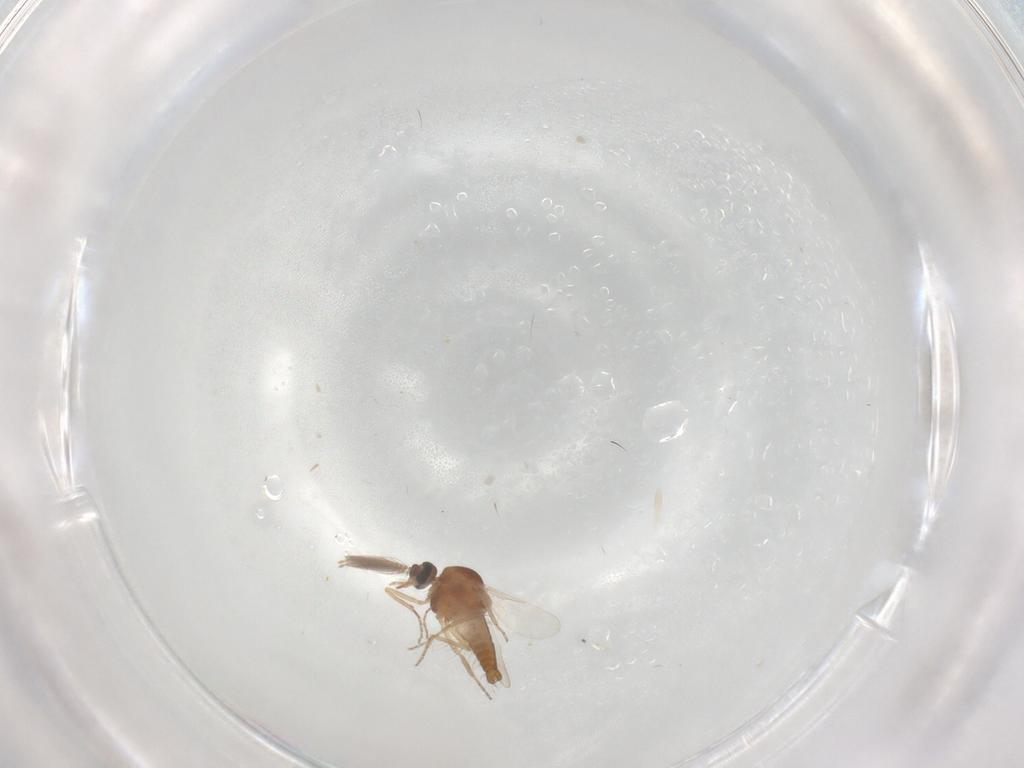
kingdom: Animalia
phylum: Arthropoda
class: Insecta
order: Diptera
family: Ceratopogonidae
